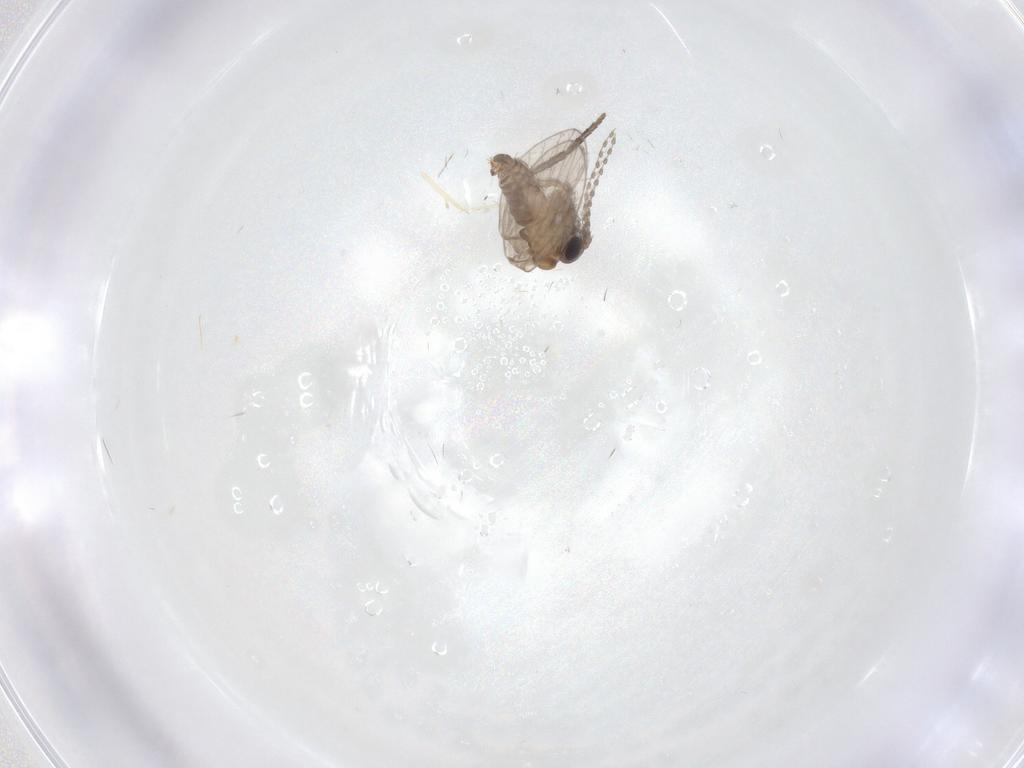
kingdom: Animalia
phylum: Arthropoda
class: Insecta
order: Diptera
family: Cecidomyiidae
